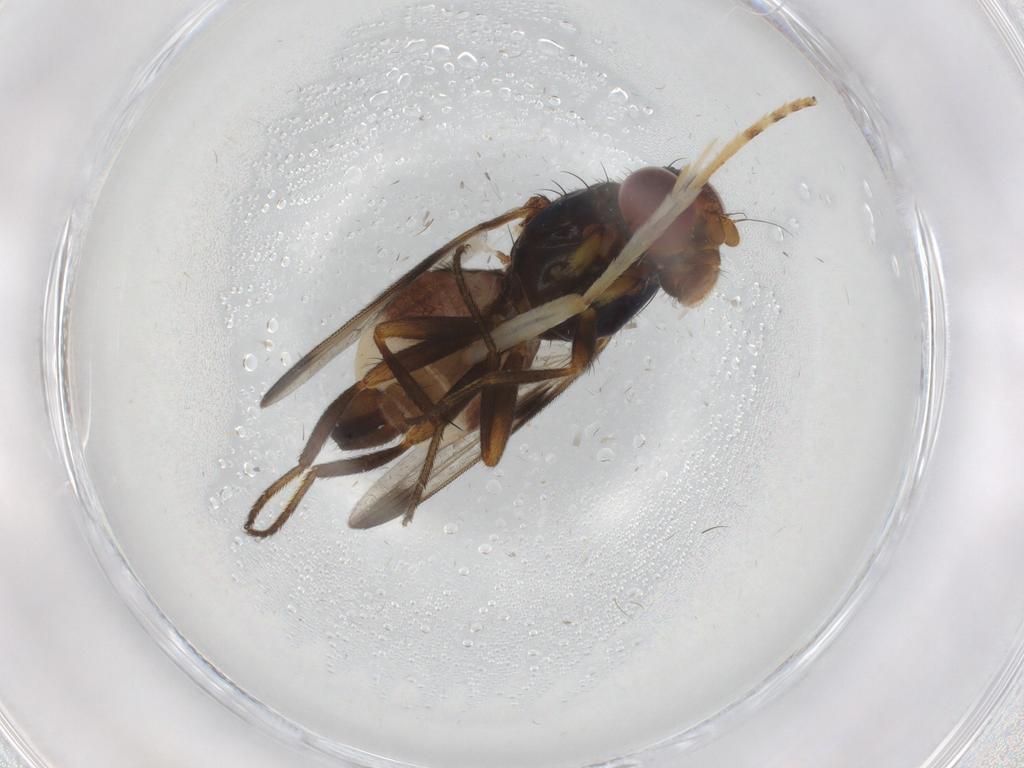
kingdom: Animalia
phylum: Arthropoda
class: Insecta
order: Diptera
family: Ulidiidae
